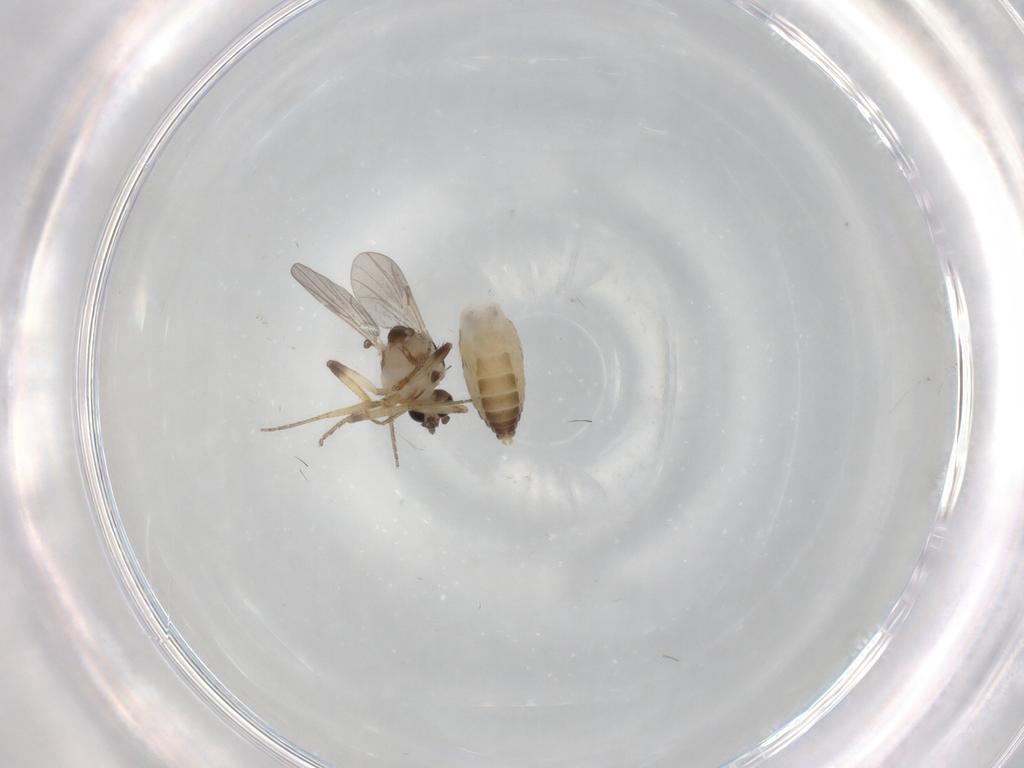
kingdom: Animalia
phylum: Arthropoda
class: Insecta
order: Diptera
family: Ceratopogonidae
